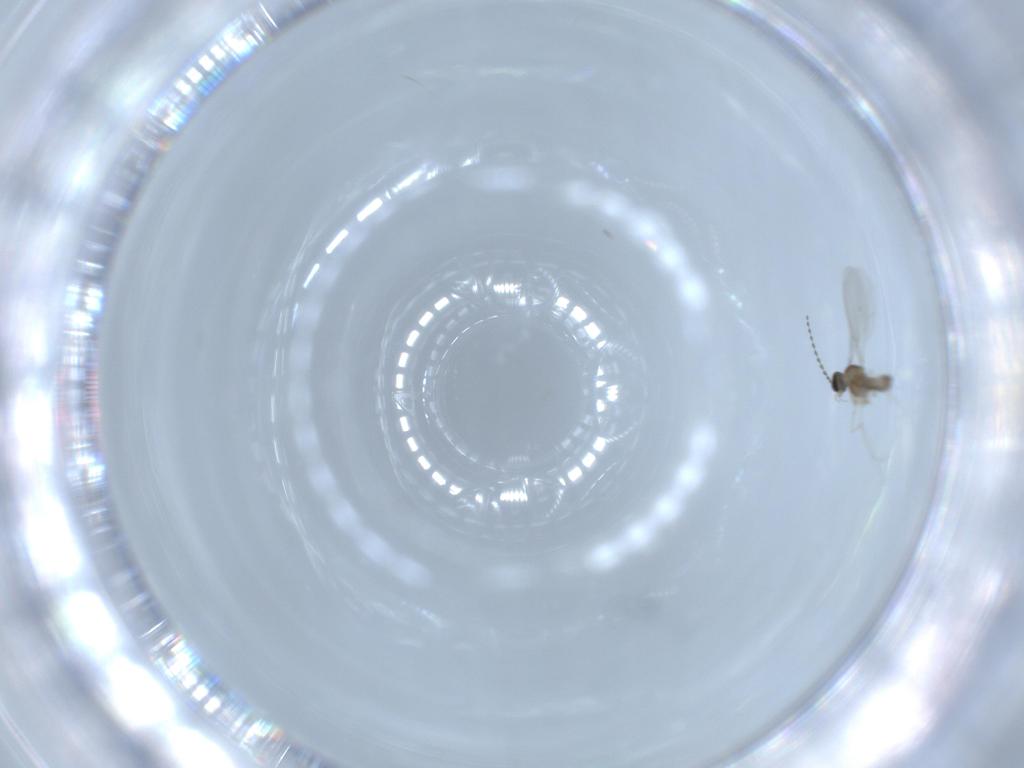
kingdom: Animalia
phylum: Arthropoda
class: Insecta
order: Diptera
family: Cecidomyiidae
